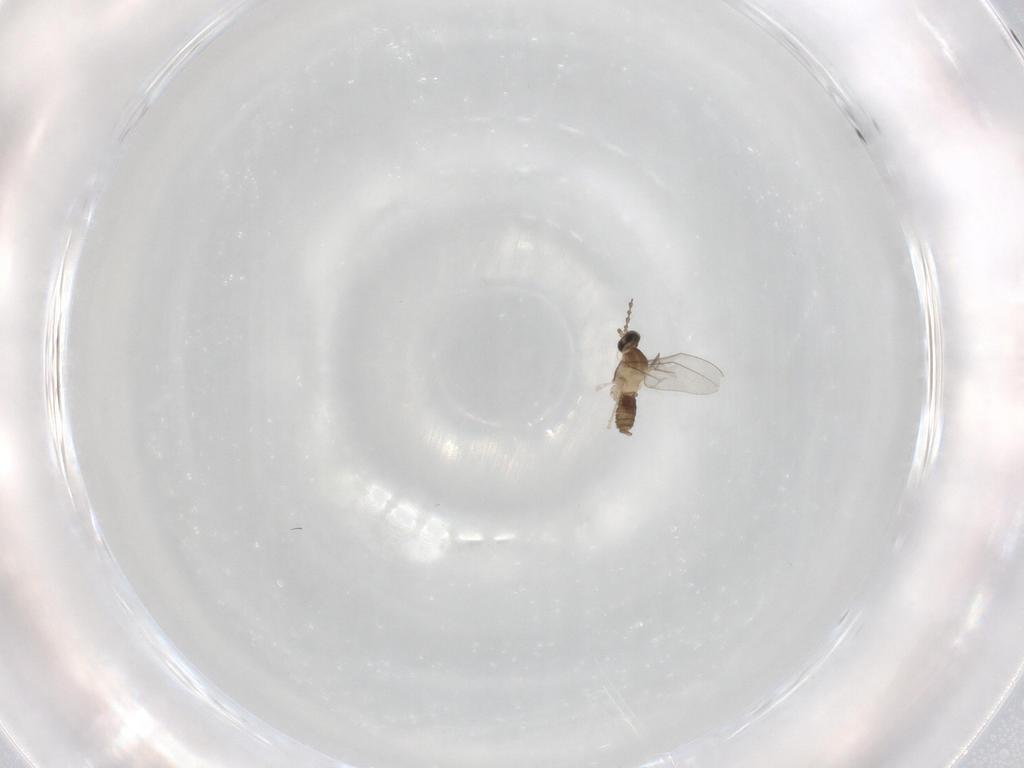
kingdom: Animalia
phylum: Arthropoda
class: Insecta
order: Diptera
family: Cecidomyiidae
